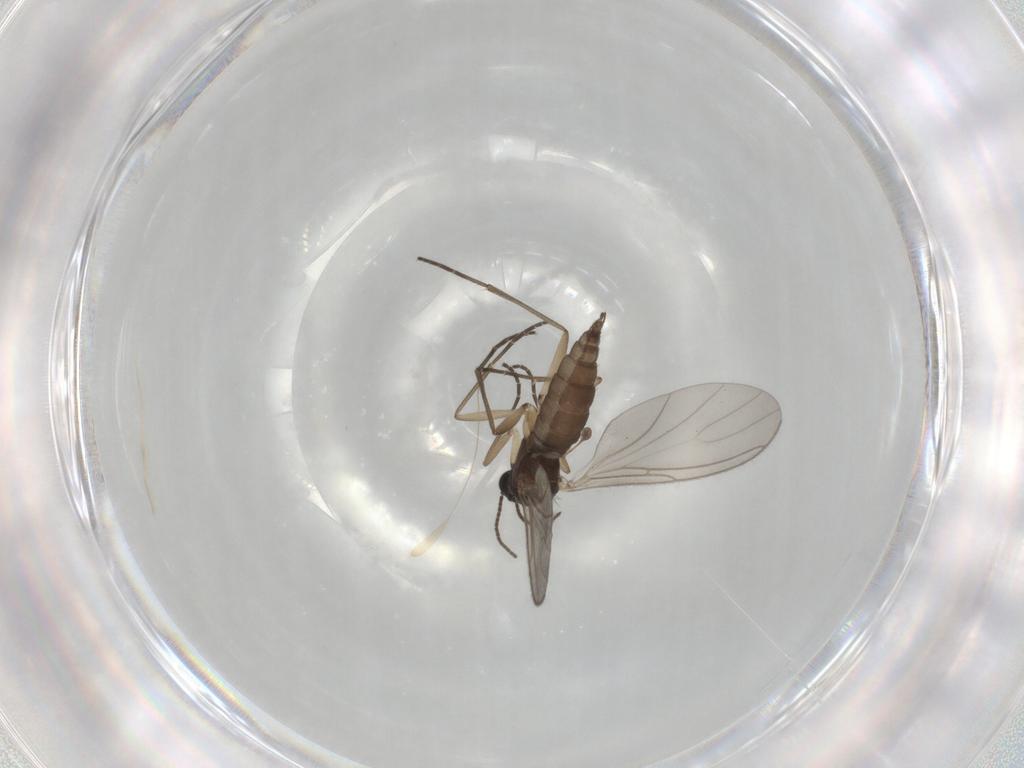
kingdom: Animalia
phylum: Arthropoda
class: Insecta
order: Diptera
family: Sciaridae
